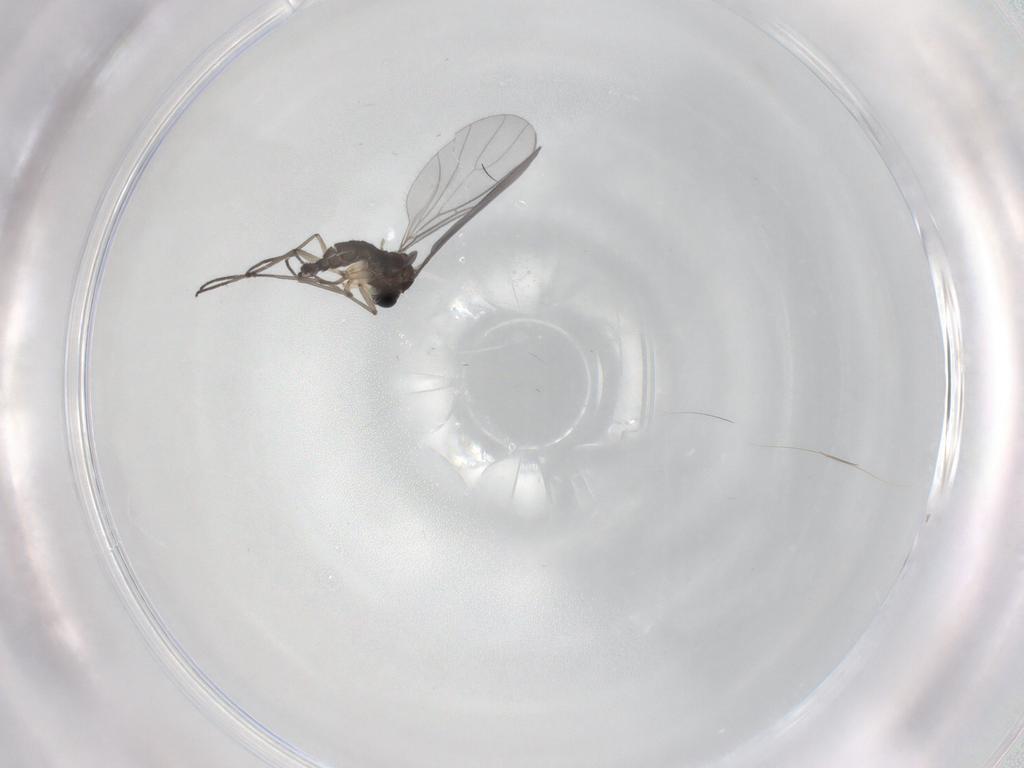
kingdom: Animalia
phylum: Arthropoda
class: Insecta
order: Diptera
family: Sciaridae
